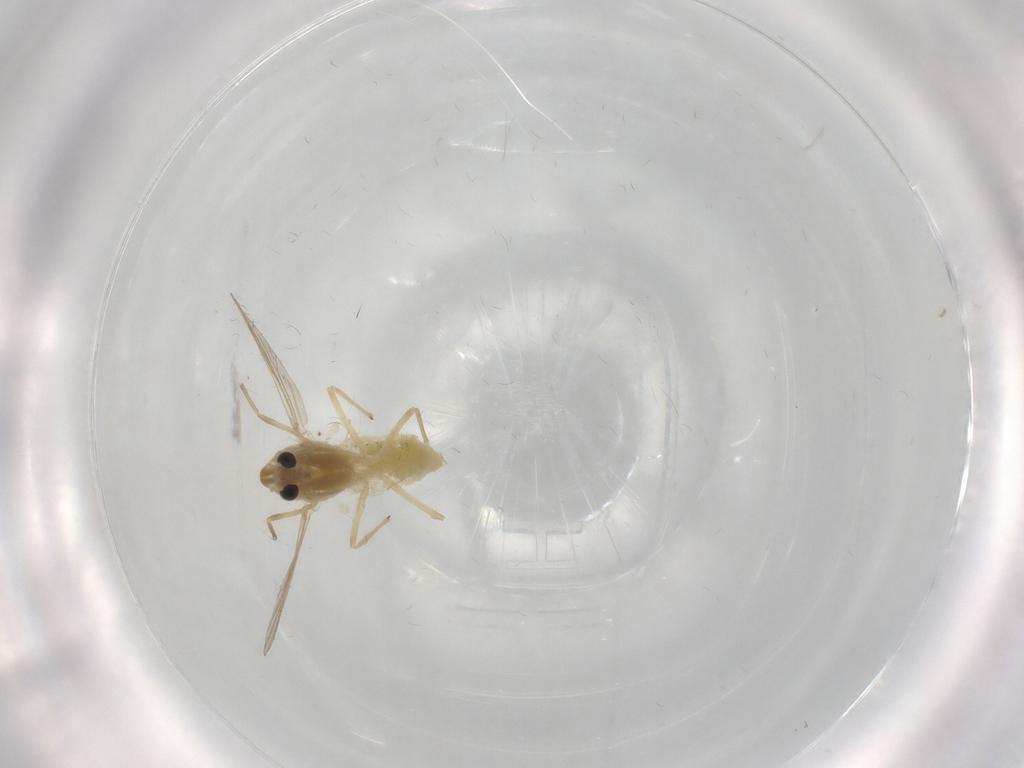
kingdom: Animalia
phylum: Arthropoda
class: Insecta
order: Diptera
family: Chironomidae
